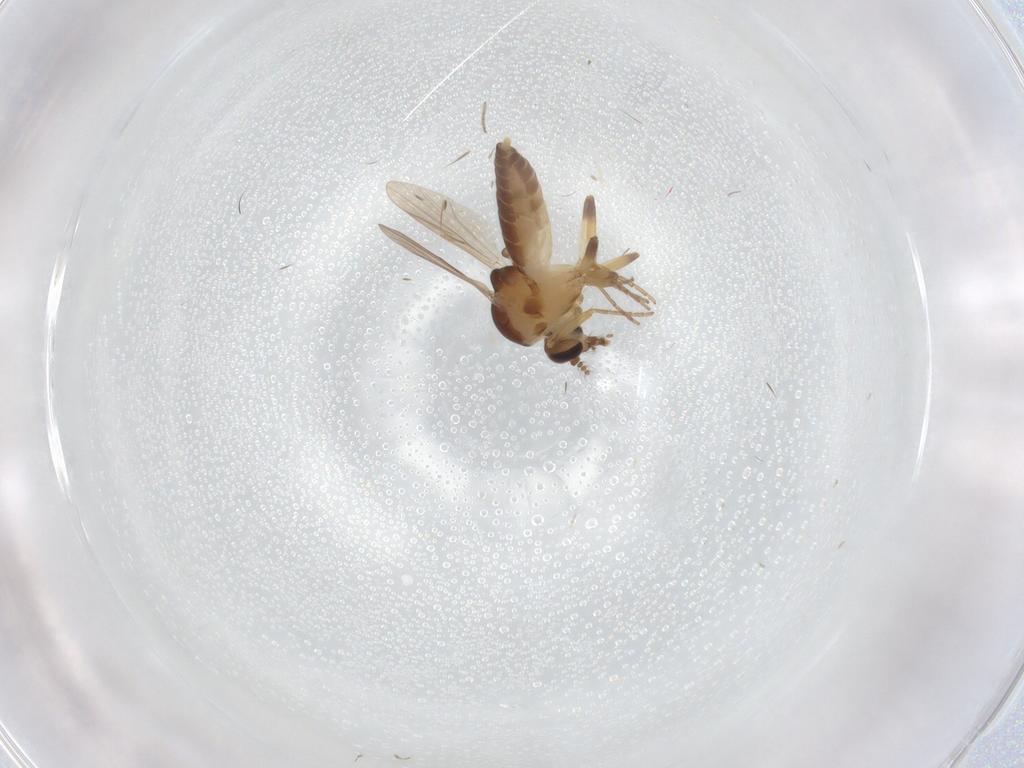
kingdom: Animalia
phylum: Arthropoda
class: Insecta
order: Diptera
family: Ceratopogonidae
